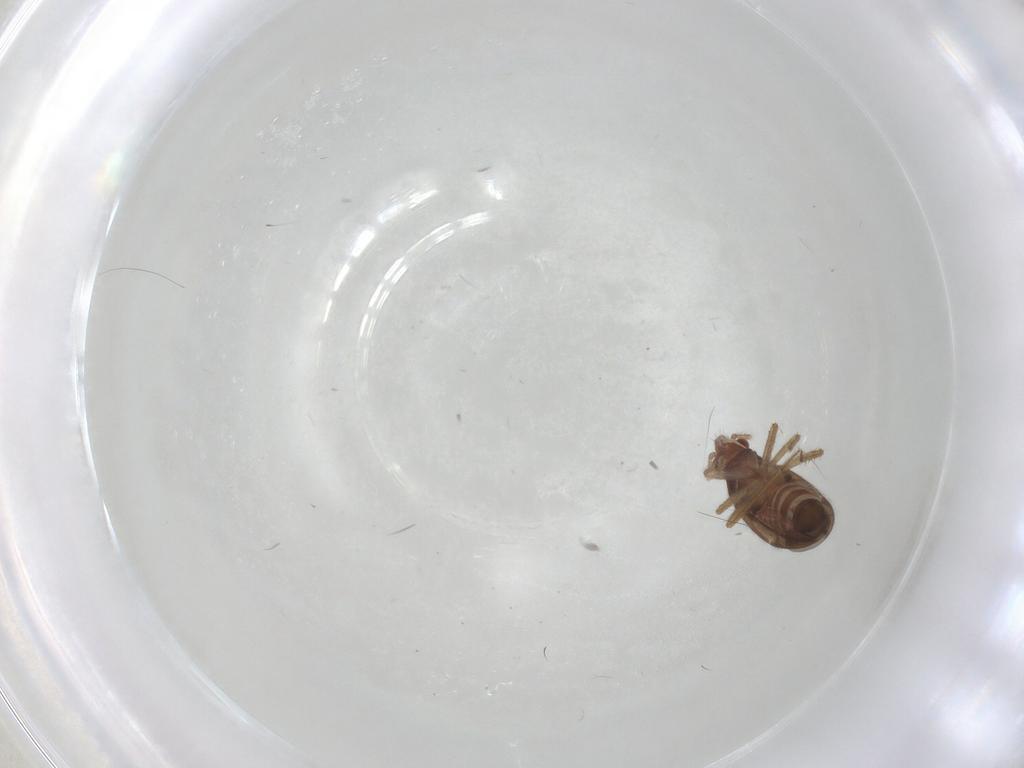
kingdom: Animalia
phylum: Arthropoda
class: Insecta
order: Hemiptera
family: Ceratocombidae
